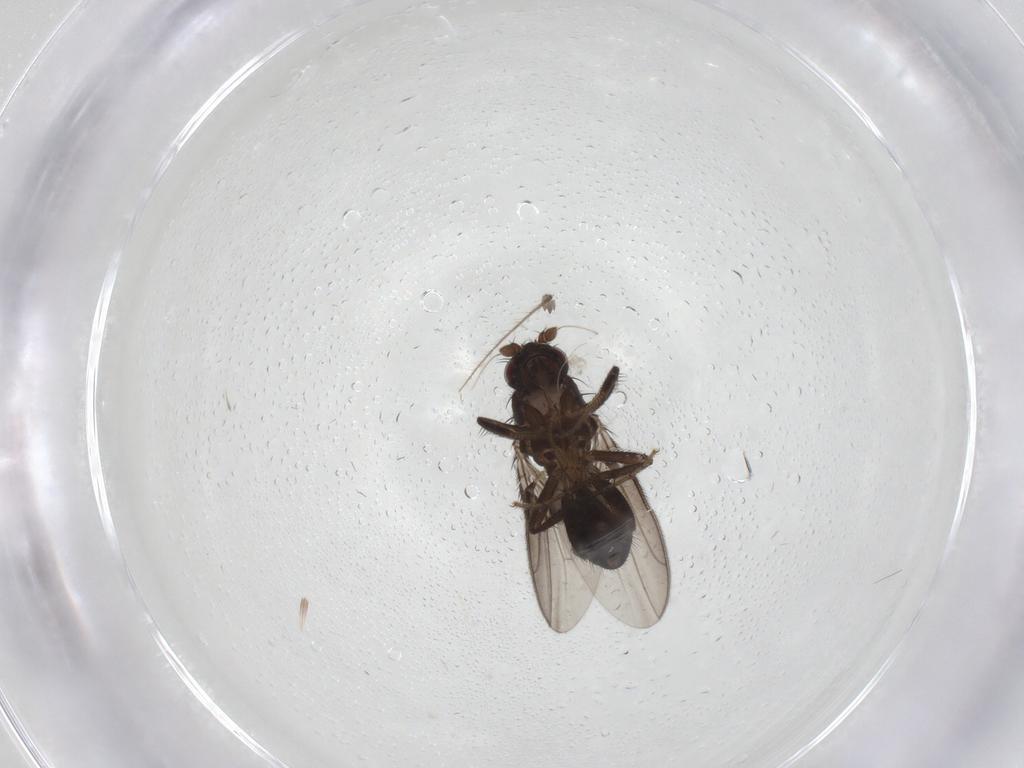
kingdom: Animalia
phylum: Arthropoda
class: Insecta
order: Diptera
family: Sphaeroceridae
